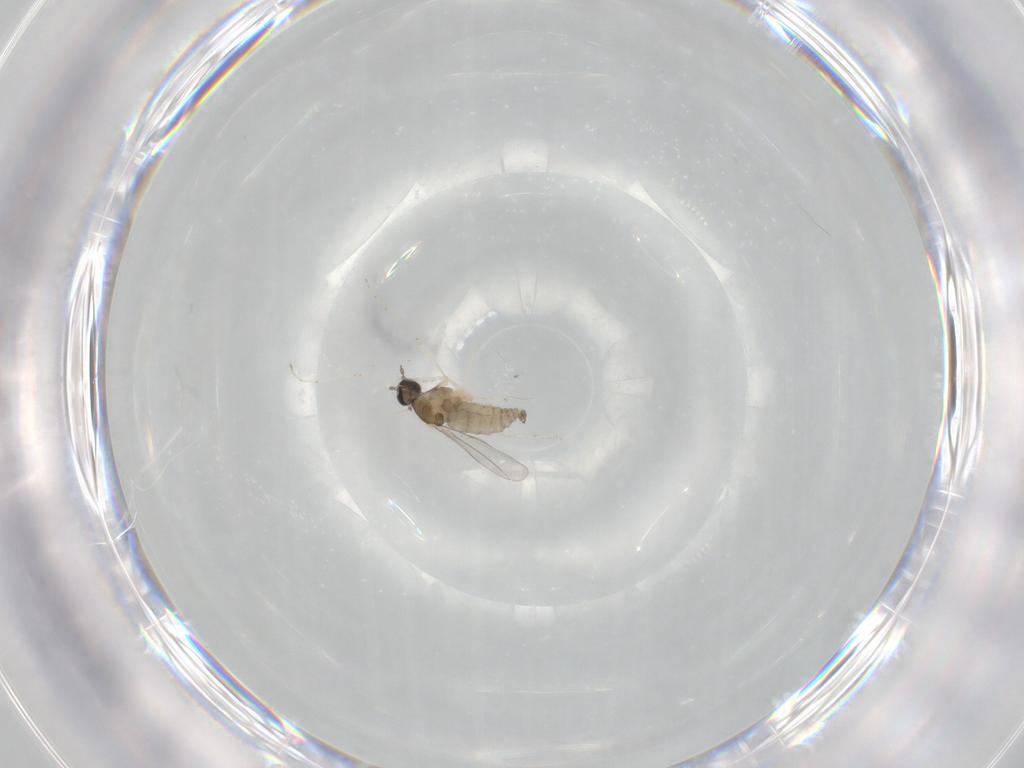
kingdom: Animalia
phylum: Arthropoda
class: Insecta
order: Diptera
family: Cecidomyiidae
